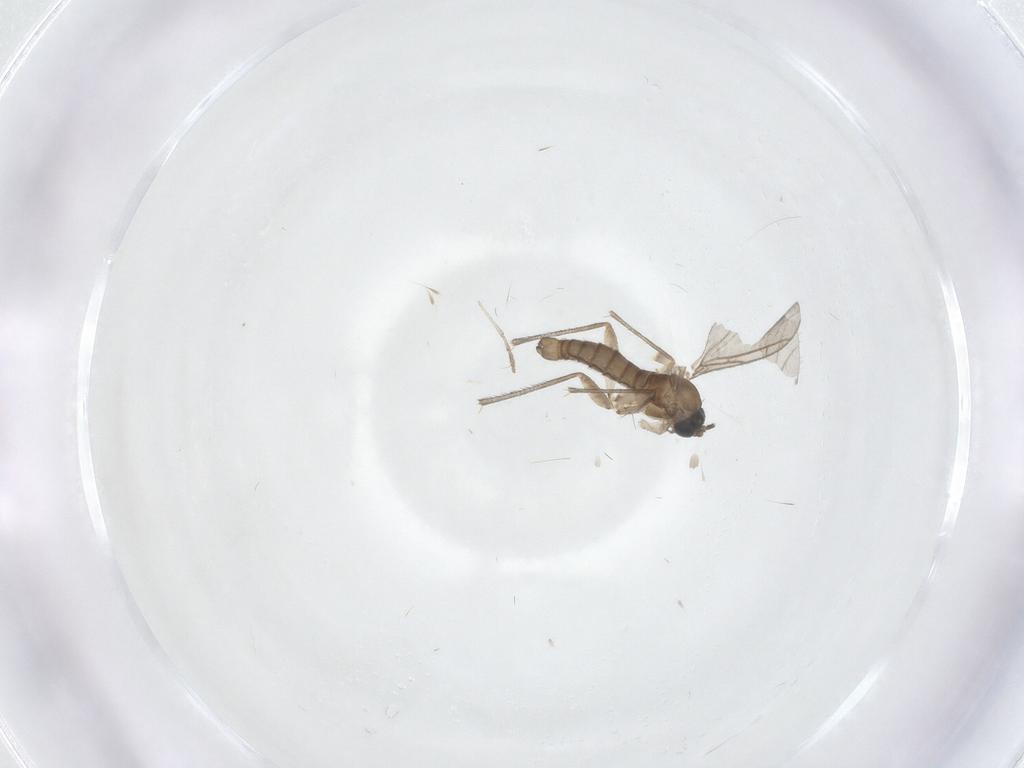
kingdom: Animalia
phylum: Arthropoda
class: Insecta
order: Diptera
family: Sciaridae
